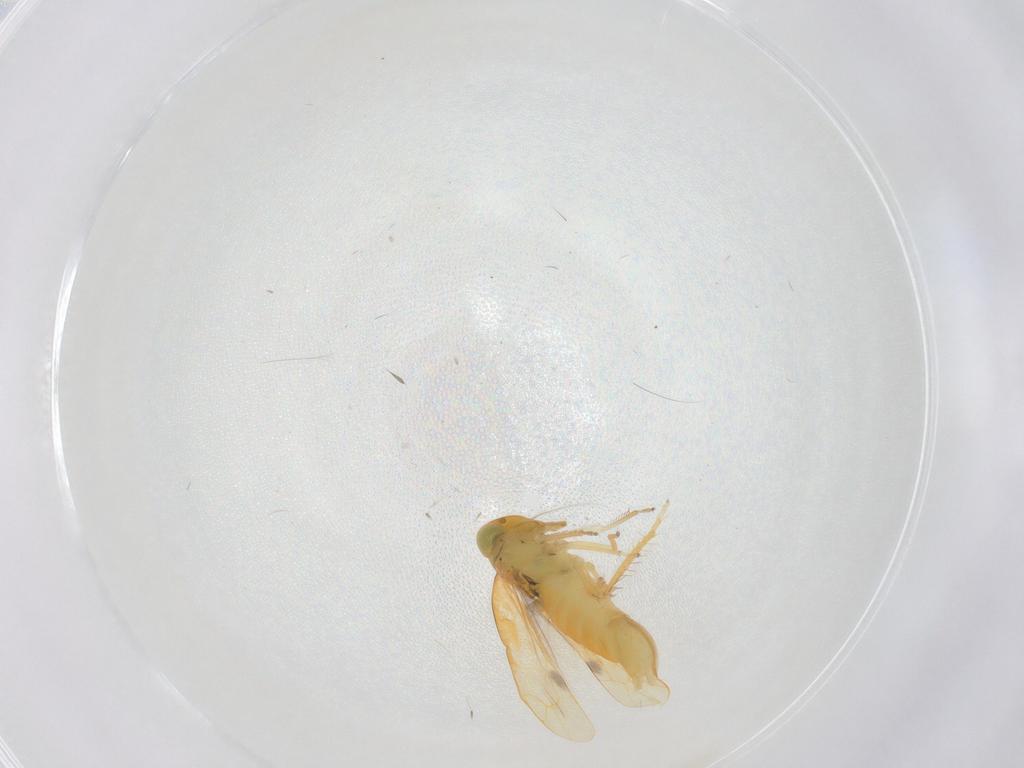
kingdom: Animalia
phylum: Arthropoda
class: Insecta
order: Hemiptera
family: Cicadellidae
